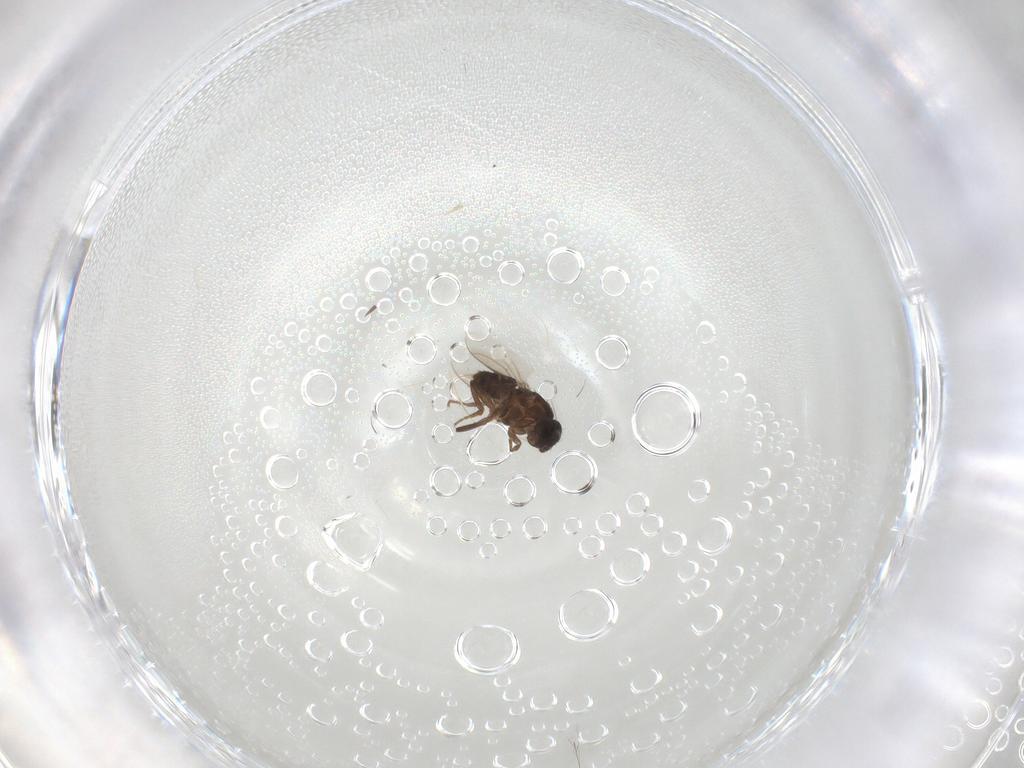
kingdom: Animalia
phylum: Arthropoda
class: Insecta
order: Diptera
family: Sphaeroceridae
